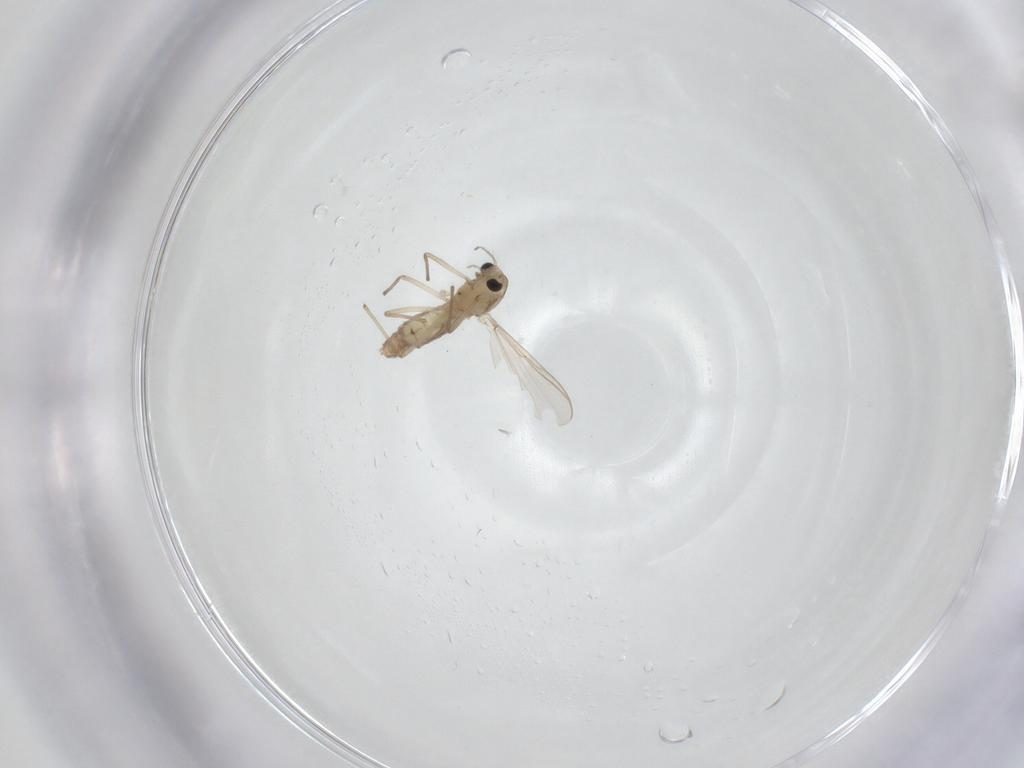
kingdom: Animalia
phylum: Arthropoda
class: Insecta
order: Diptera
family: Chironomidae
